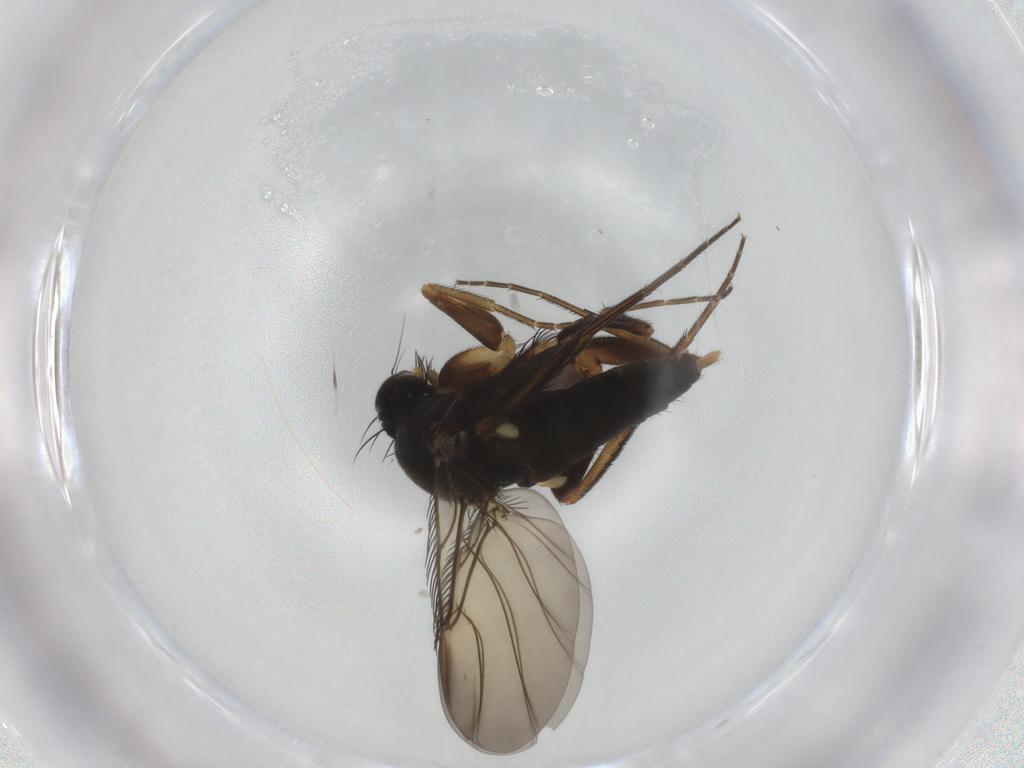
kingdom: Animalia
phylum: Arthropoda
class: Insecta
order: Diptera
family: Phoridae
